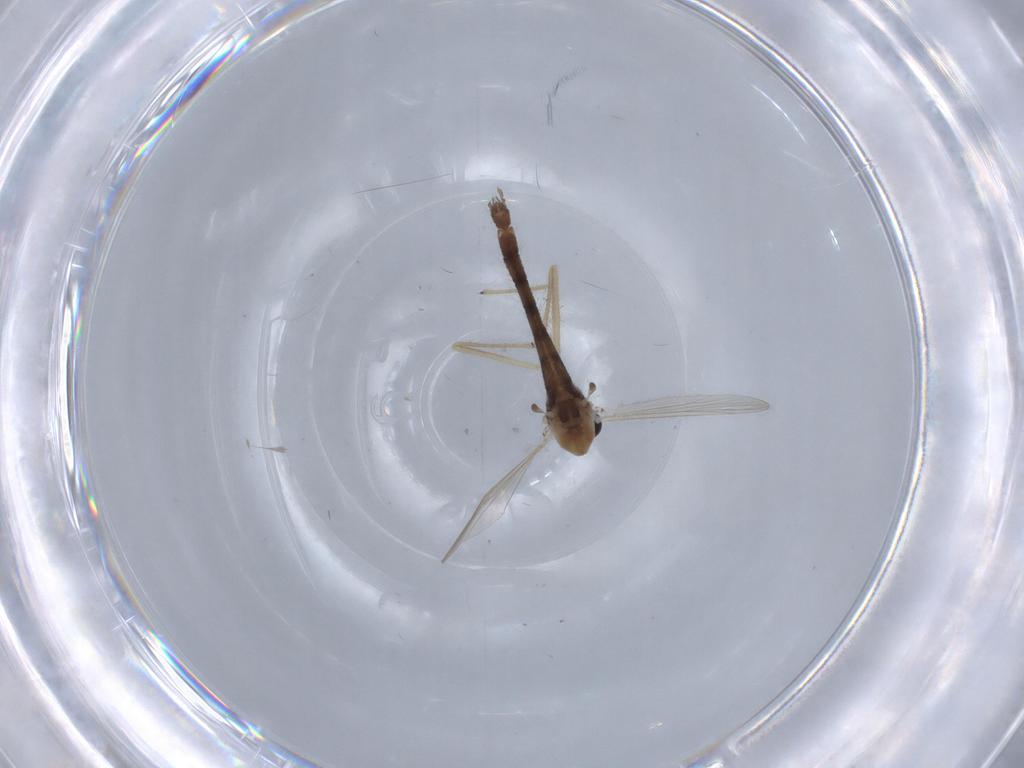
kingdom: Animalia
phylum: Arthropoda
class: Insecta
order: Diptera
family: Chironomidae
